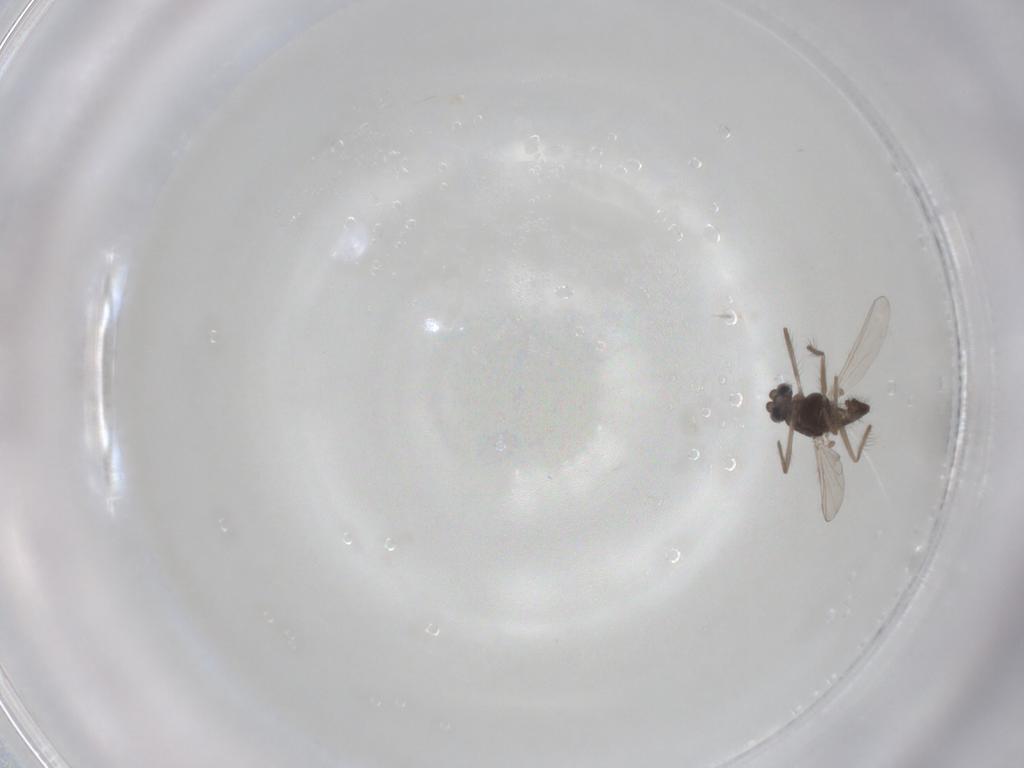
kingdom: Animalia
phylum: Arthropoda
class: Insecta
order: Diptera
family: Chironomidae
